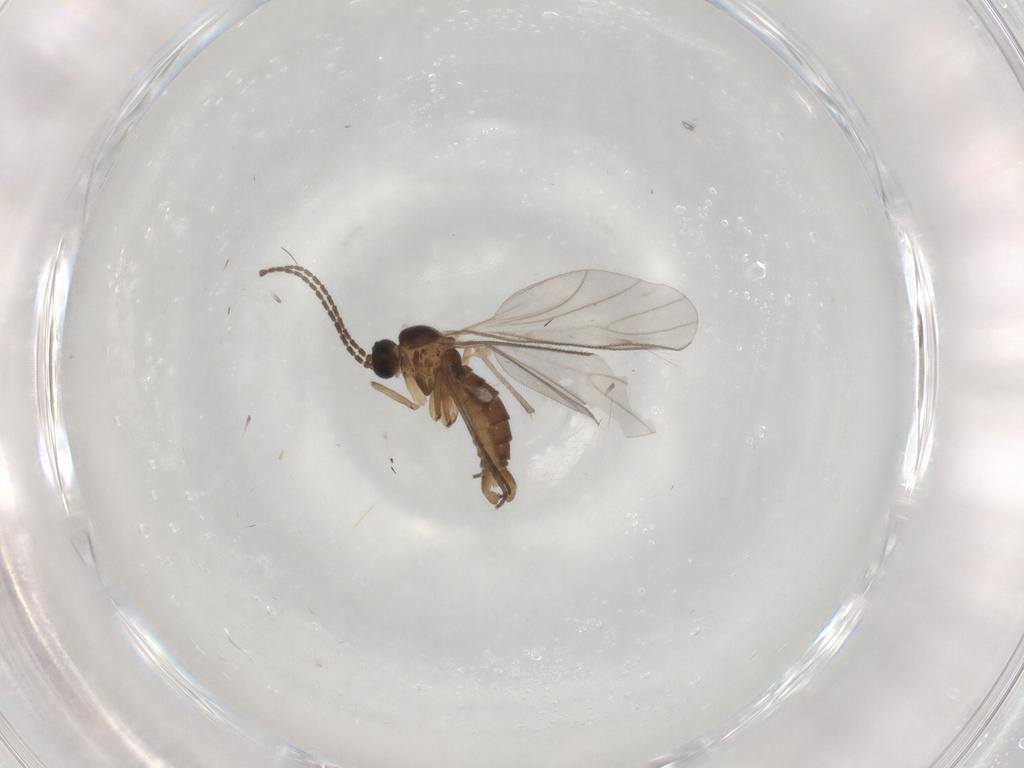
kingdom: Animalia
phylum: Arthropoda
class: Insecta
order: Diptera
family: Sciaridae
